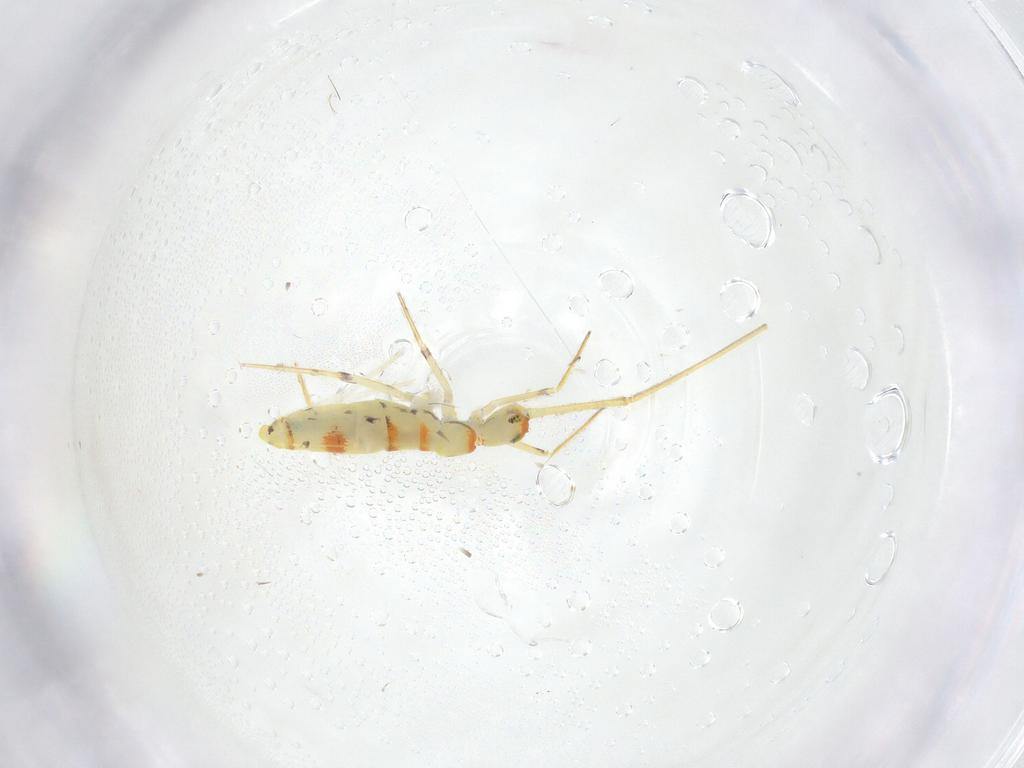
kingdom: Animalia
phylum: Arthropoda
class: Collembola
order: Entomobryomorpha
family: Entomobryidae
